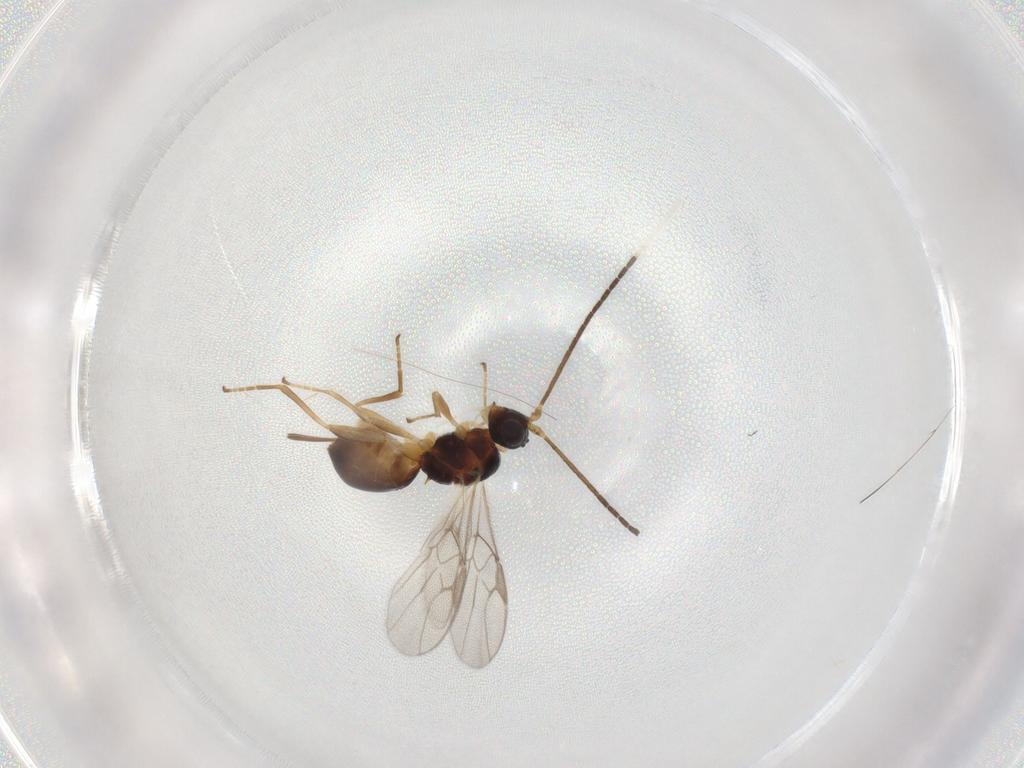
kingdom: Animalia
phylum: Arthropoda
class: Insecta
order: Hymenoptera
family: Braconidae
